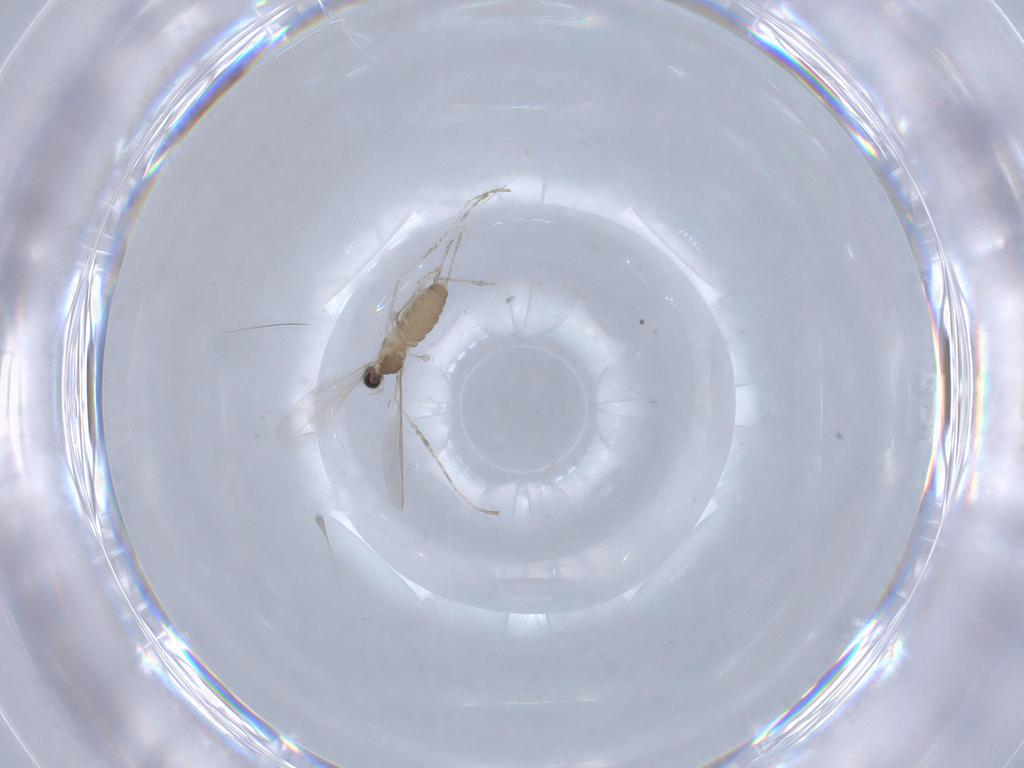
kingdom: Animalia
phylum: Arthropoda
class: Insecta
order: Diptera
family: Cecidomyiidae
